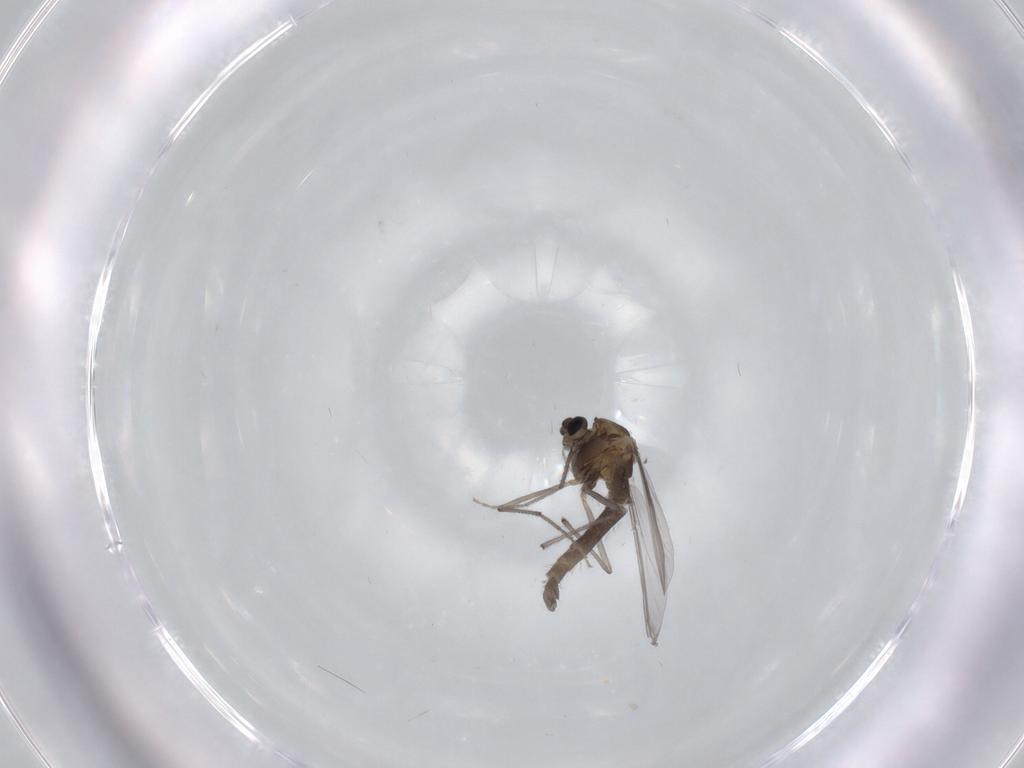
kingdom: Animalia
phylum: Arthropoda
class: Insecta
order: Diptera
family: Chironomidae
